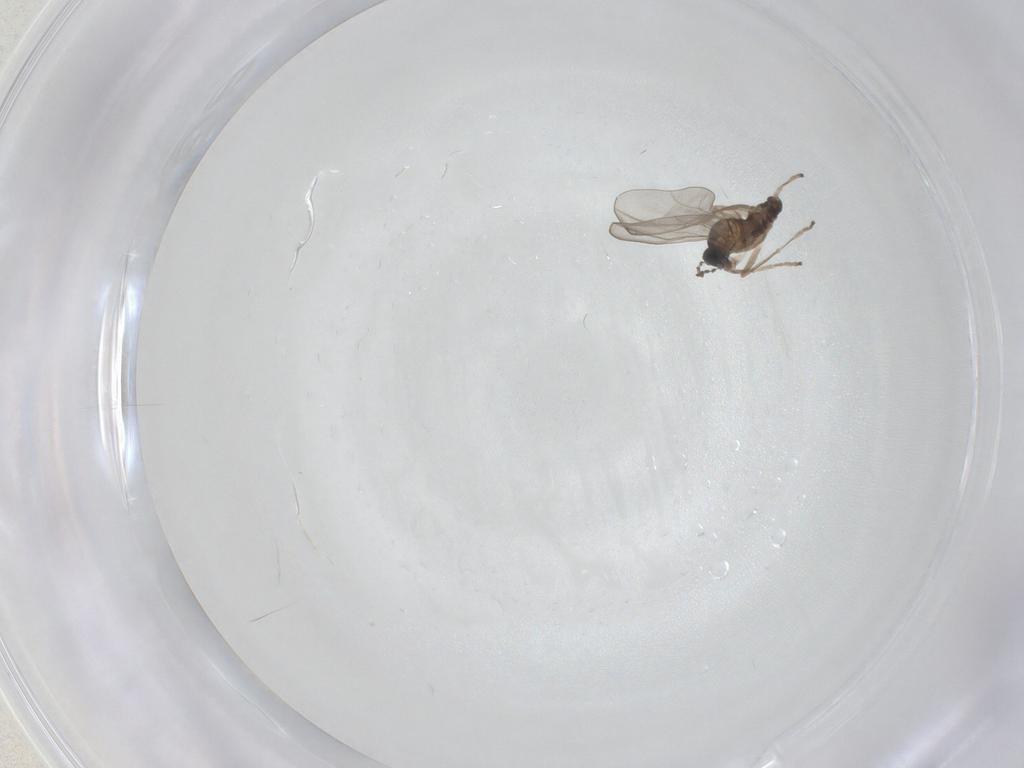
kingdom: Animalia
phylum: Arthropoda
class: Insecta
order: Diptera
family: Cecidomyiidae
